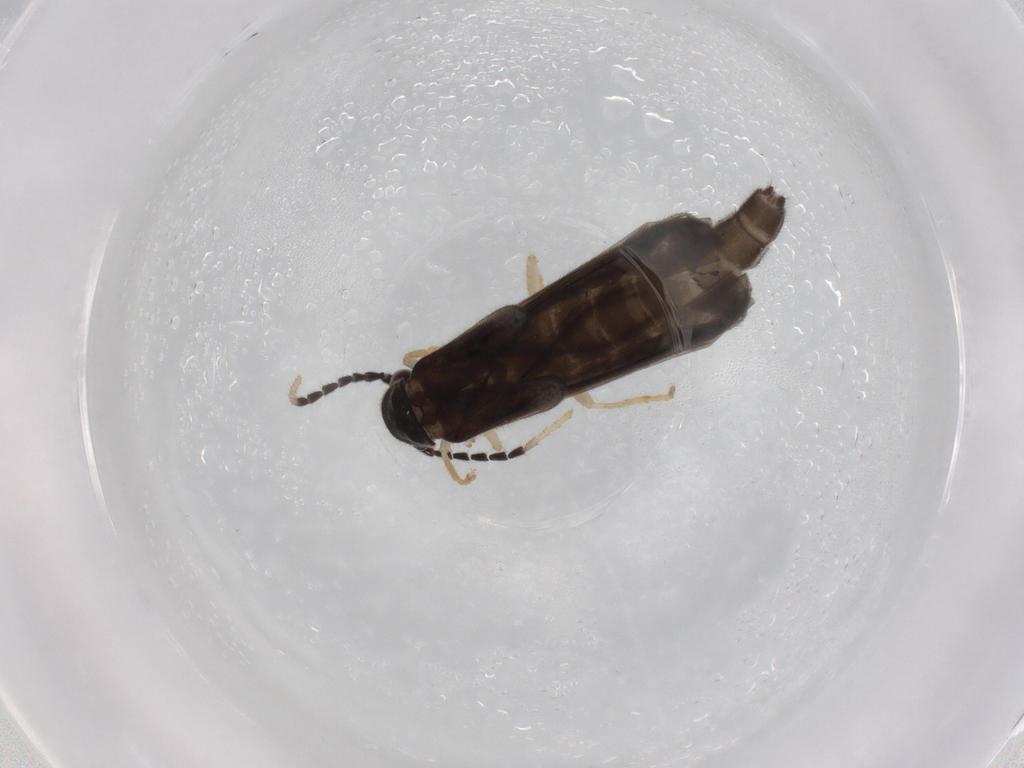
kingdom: Animalia
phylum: Arthropoda
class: Insecta
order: Coleoptera
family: Cantharidae
